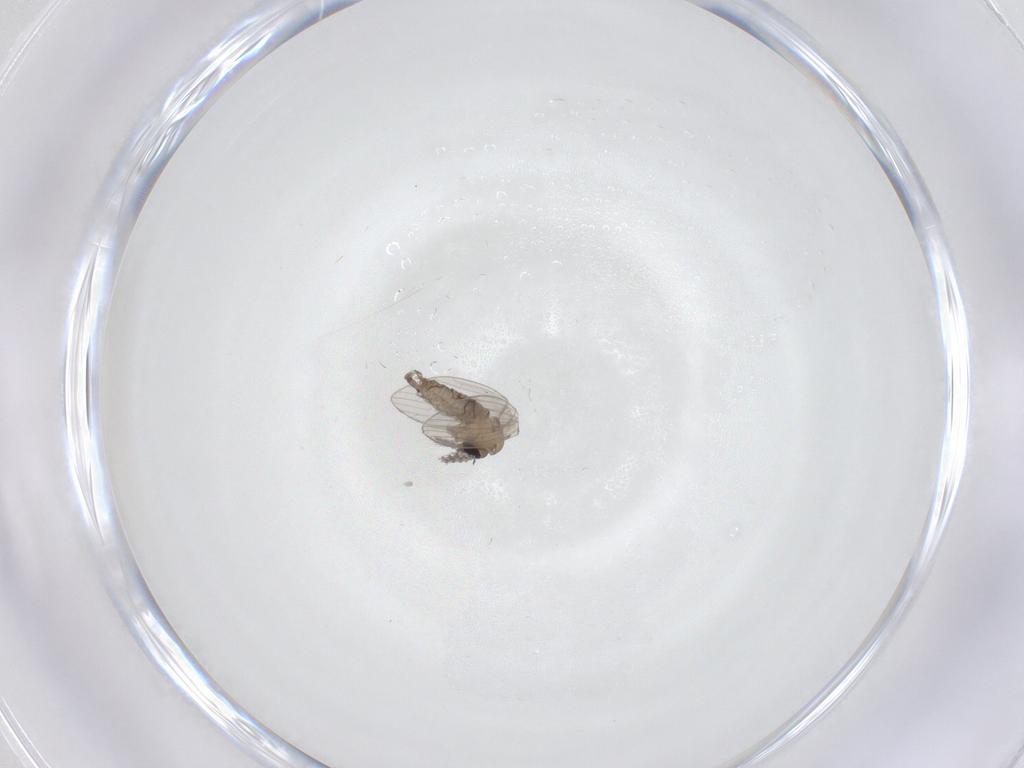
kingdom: Animalia
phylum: Arthropoda
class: Insecta
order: Diptera
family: Psychodidae
